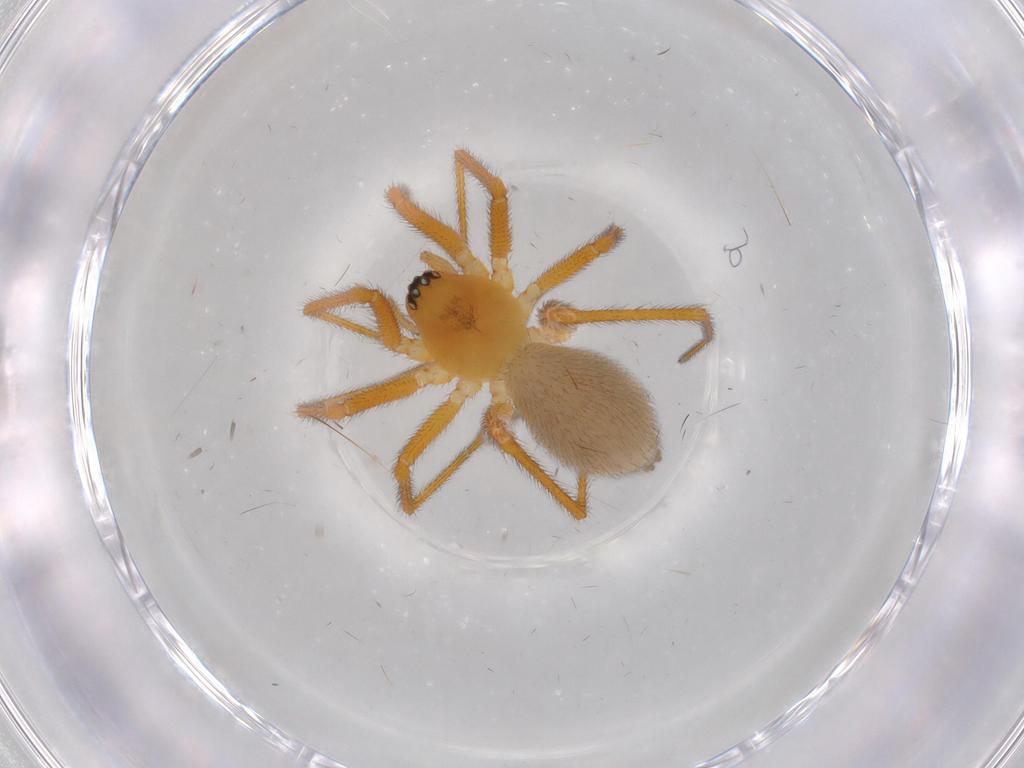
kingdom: Animalia
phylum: Arthropoda
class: Arachnida
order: Araneae
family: Linyphiidae
